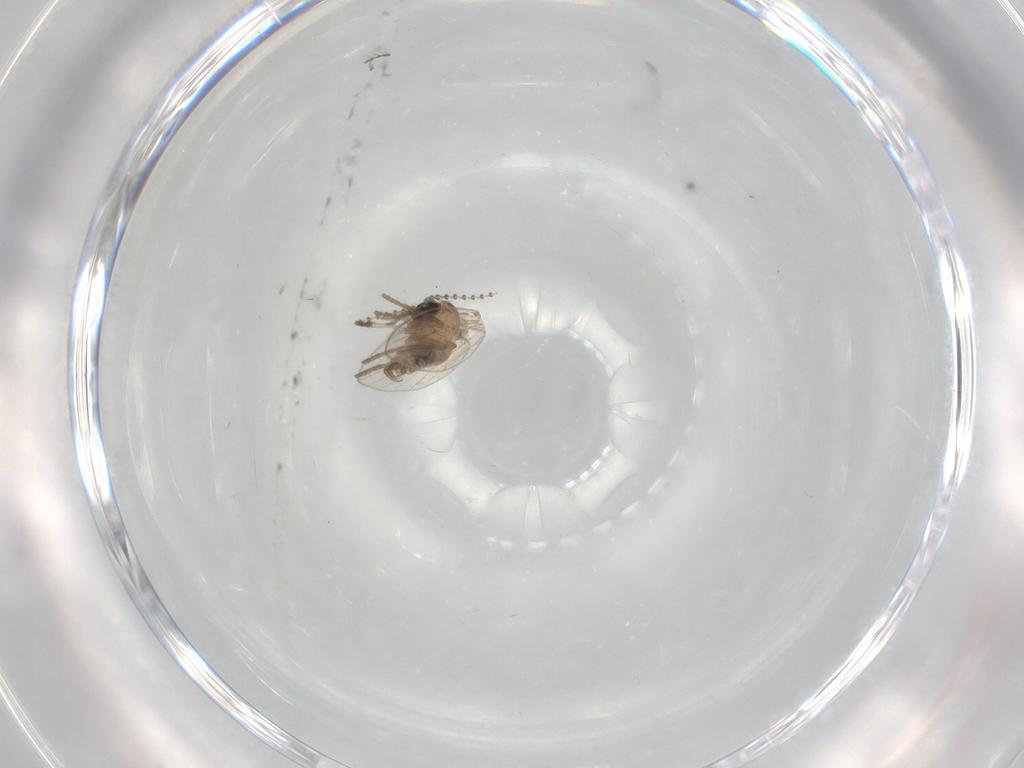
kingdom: Animalia
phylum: Arthropoda
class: Insecta
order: Diptera
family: Psychodidae
